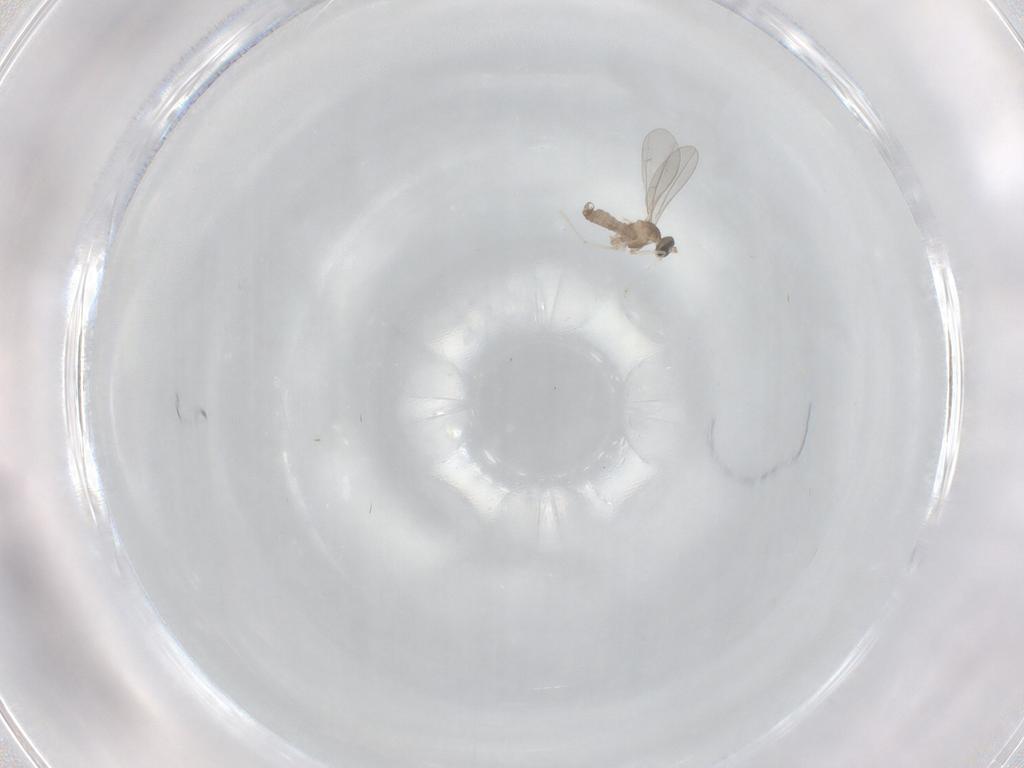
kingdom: Animalia
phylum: Arthropoda
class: Insecta
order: Diptera
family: Cecidomyiidae
